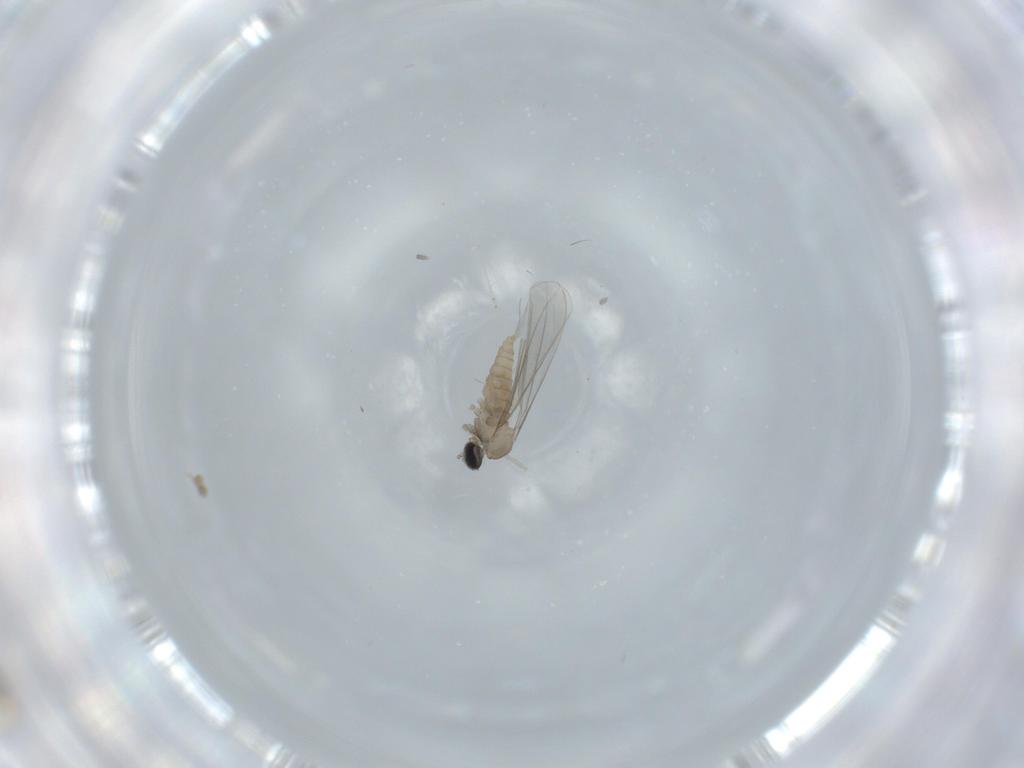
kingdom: Animalia
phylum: Arthropoda
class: Insecta
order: Diptera
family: Cecidomyiidae
